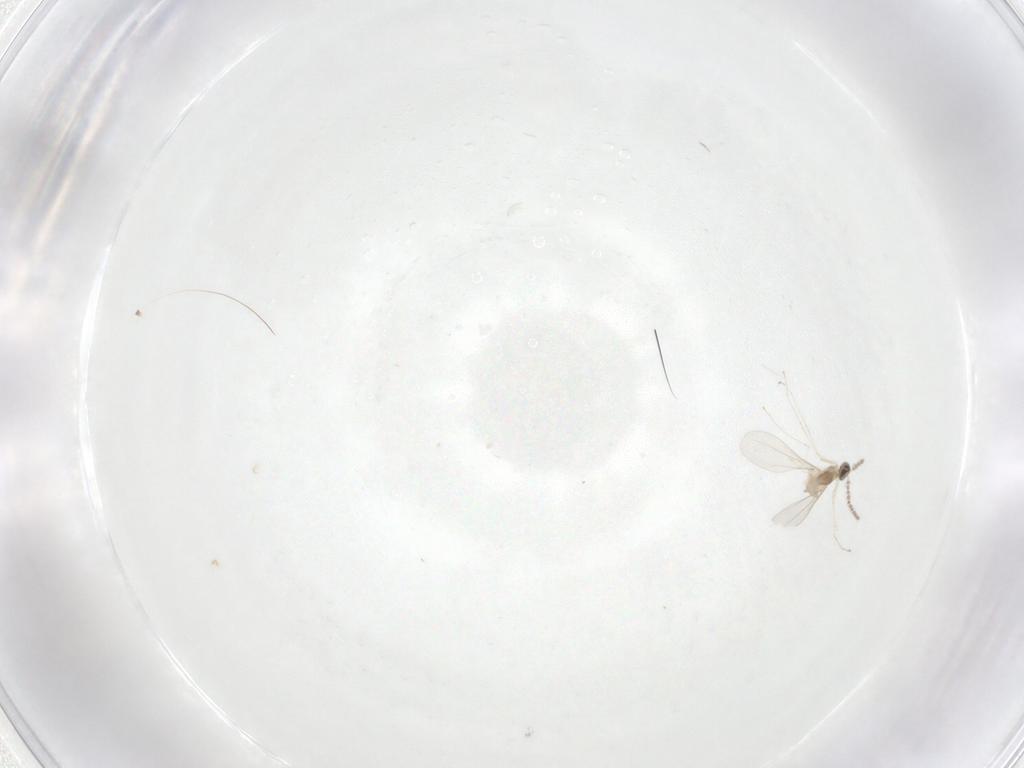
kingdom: Animalia
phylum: Arthropoda
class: Insecta
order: Diptera
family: Cecidomyiidae
